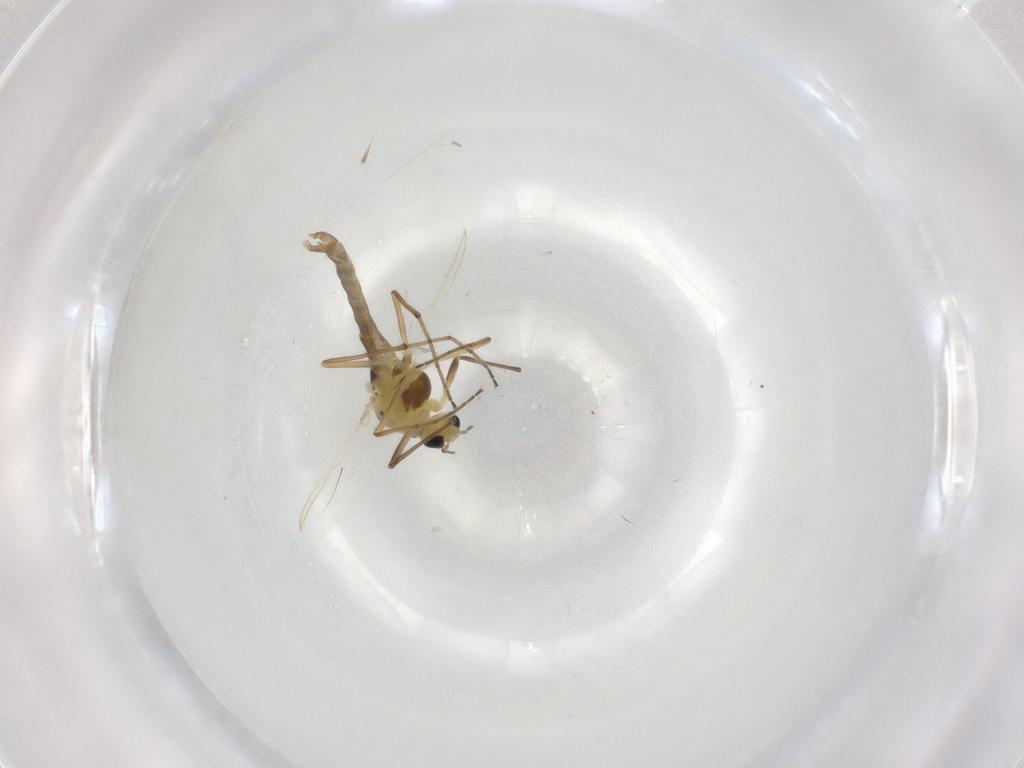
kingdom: Animalia
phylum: Arthropoda
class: Insecta
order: Diptera
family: Chironomidae
